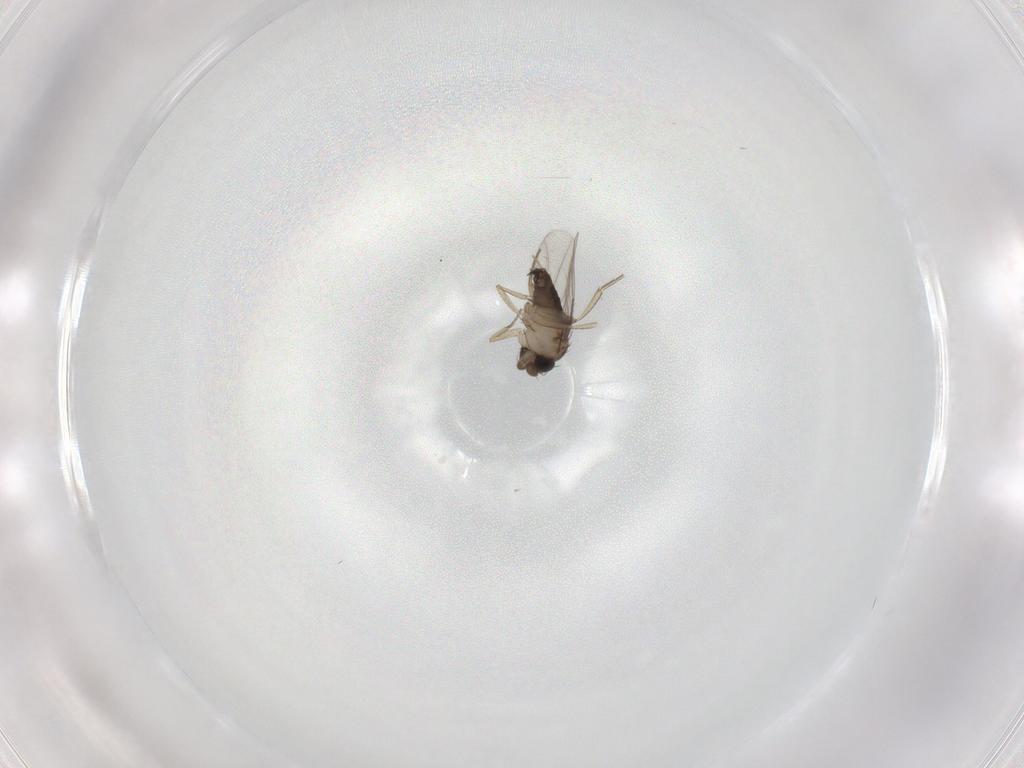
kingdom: Animalia
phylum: Arthropoda
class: Insecta
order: Diptera
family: Phoridae
